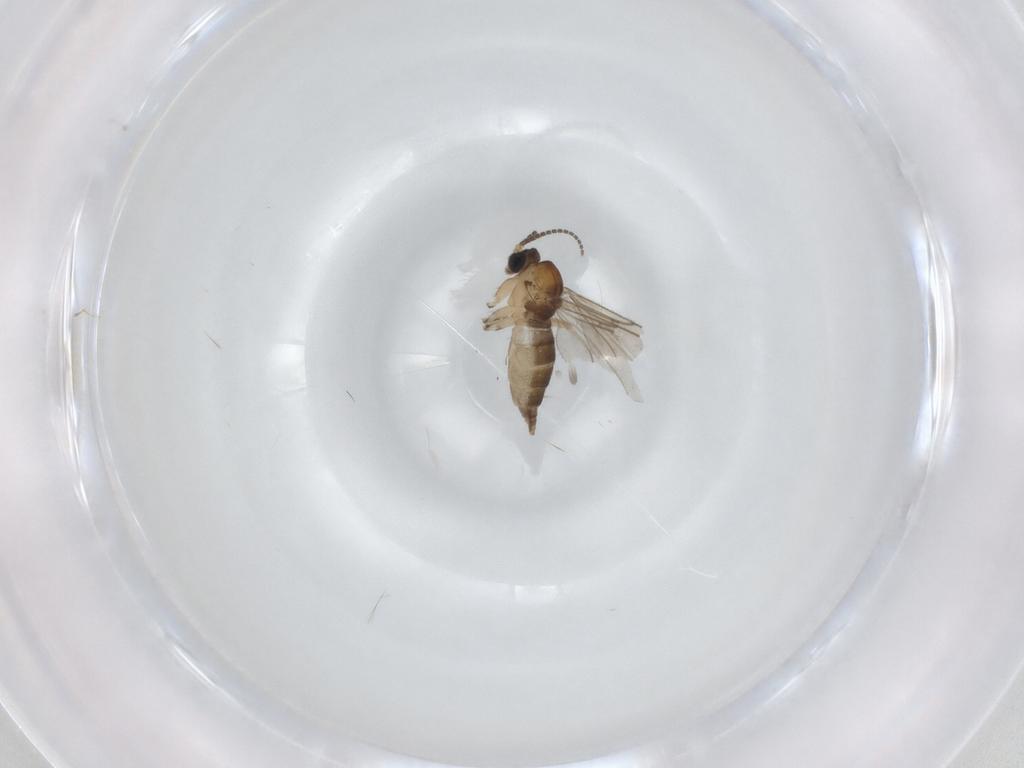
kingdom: Animalia
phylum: Arthropoda
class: Insecta
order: Diptera
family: Sciaridae
